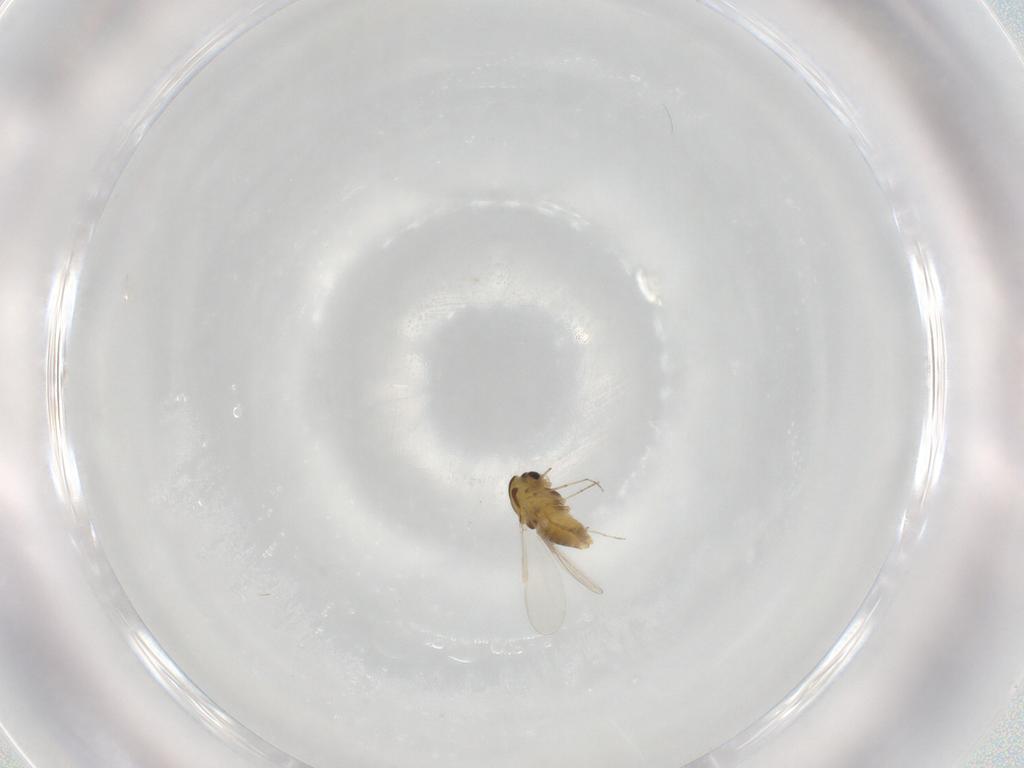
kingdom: Animalia
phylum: Arthropoda
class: Insecta
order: Diptera
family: Chironomidae
